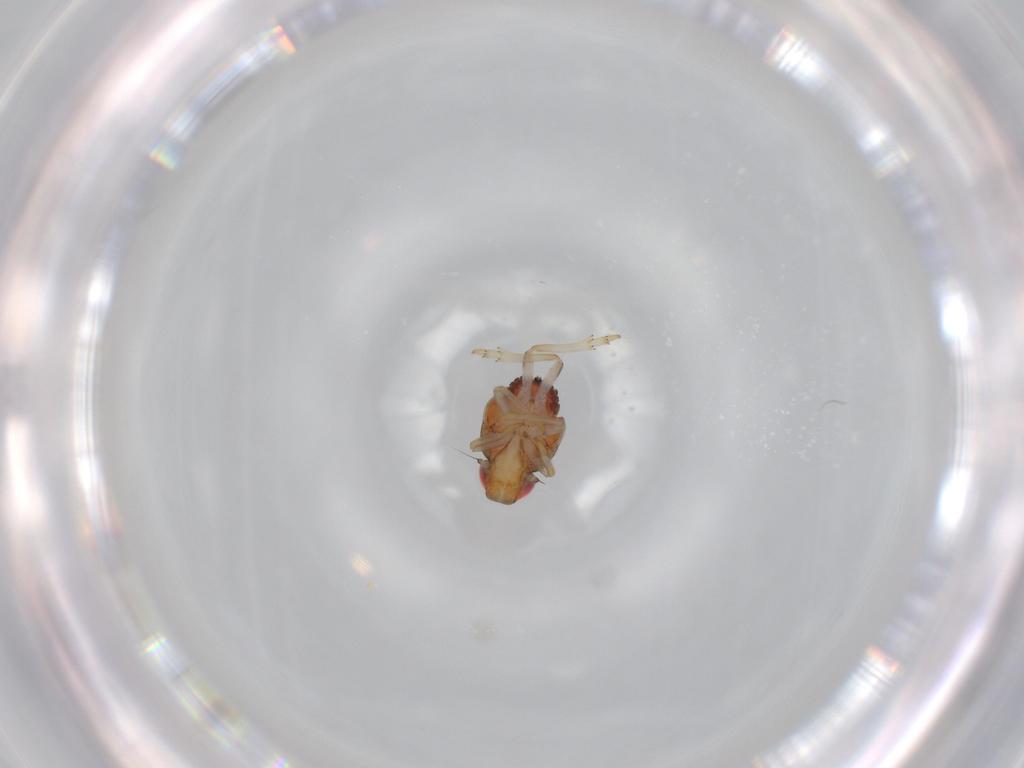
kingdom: Animalia
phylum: Arthropoda
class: Insecta
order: Hemiptera
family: Issidae
